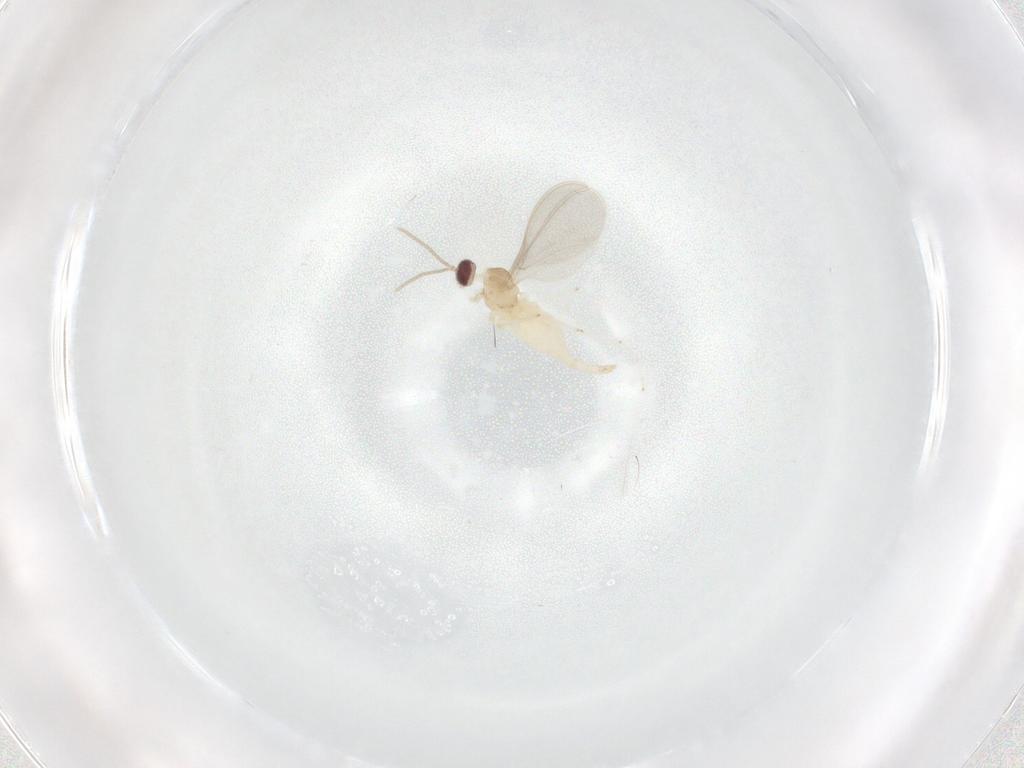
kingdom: Animalia
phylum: Arthropoda
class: Insecta
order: Diptera
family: Cecidomyiidae
